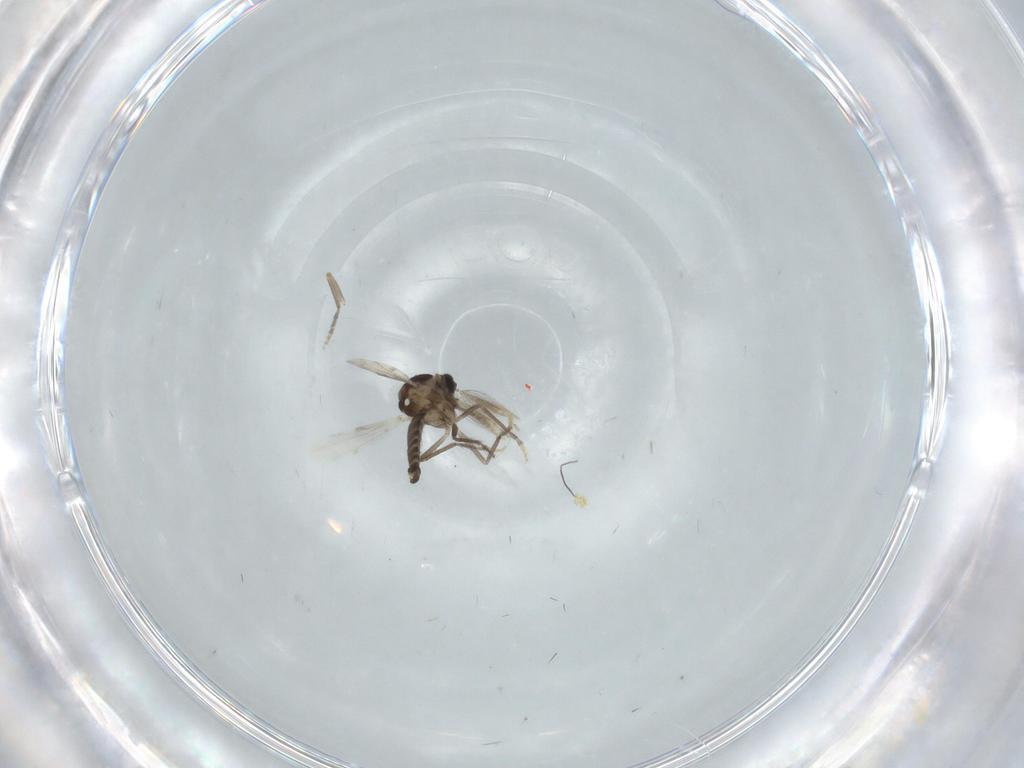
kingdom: Animalia
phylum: Arthropoda
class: Insecta
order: Diptera
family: Ceratopogonidae
